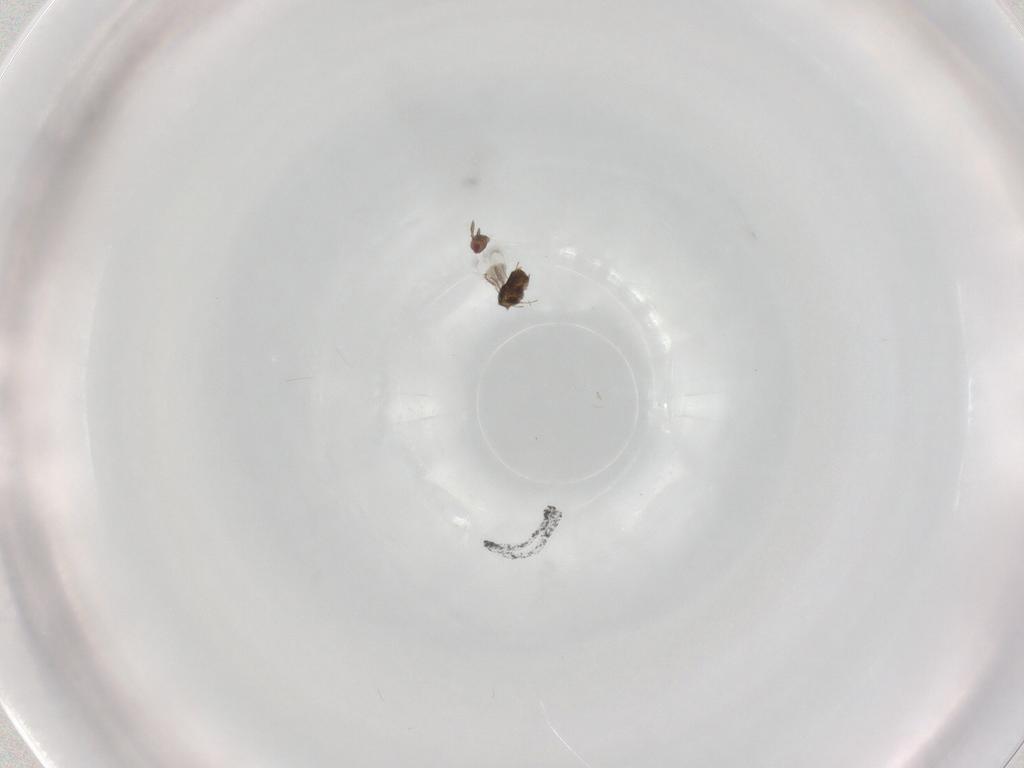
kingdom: Animalia
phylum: Arthropoda
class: Insecta
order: Hymenoptera
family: Trichogrammatidae
